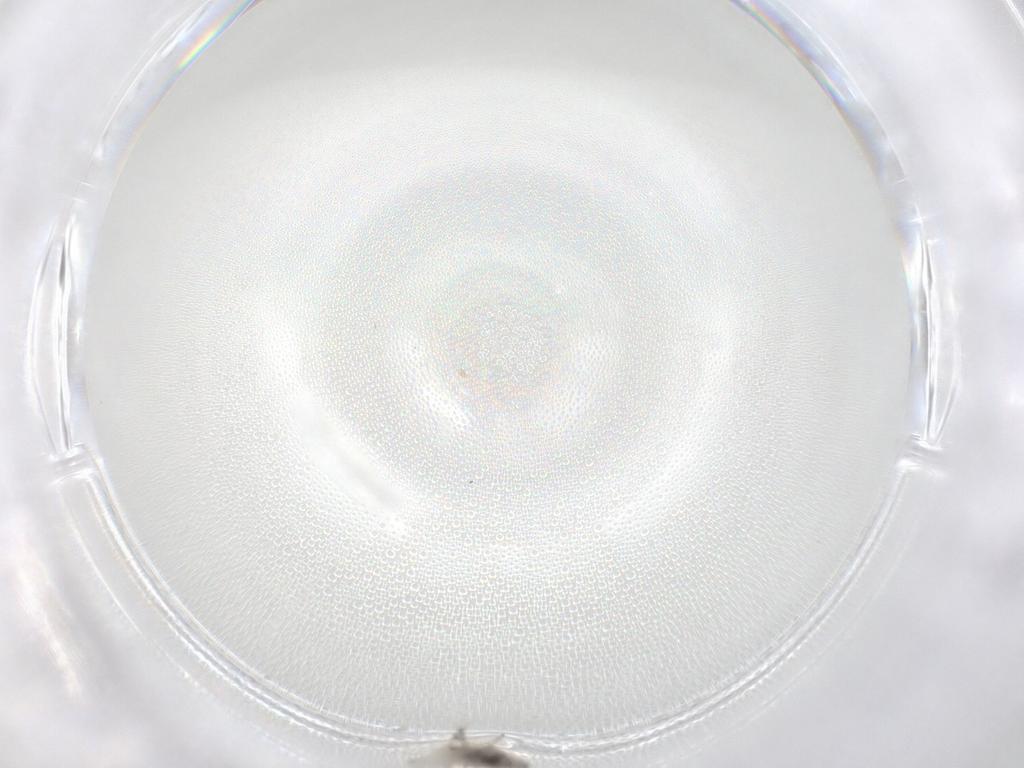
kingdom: Animalia
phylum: Arthropoda
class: Insecta
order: Diptera
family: Cecidomyiidae
